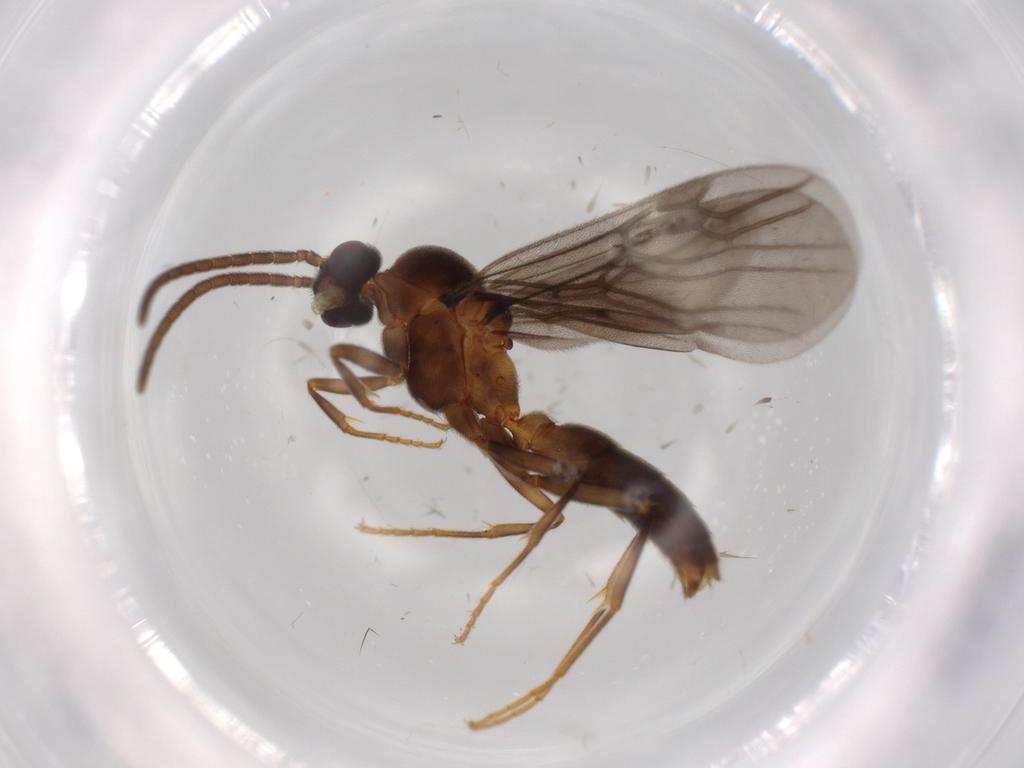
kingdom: Animalia
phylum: Arthropoda
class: Insecta
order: Hymenoptera
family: Formicidae
